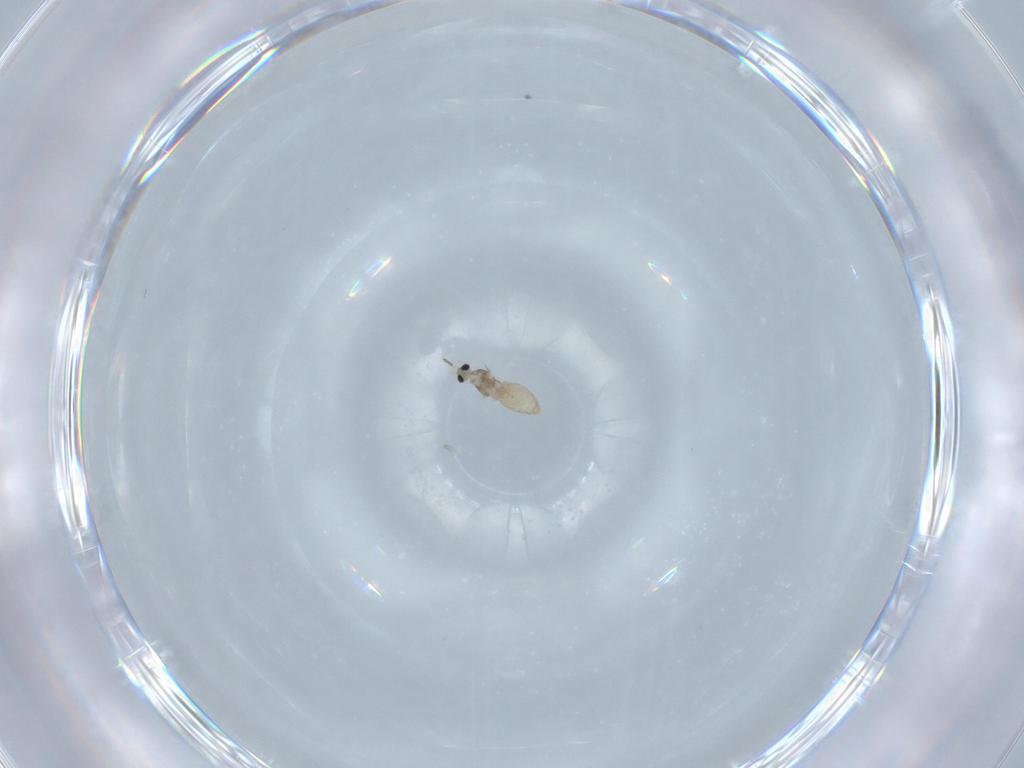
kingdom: Animalia
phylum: Arthropoda
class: Insecta
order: Diptera
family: Cecidomyiidae
